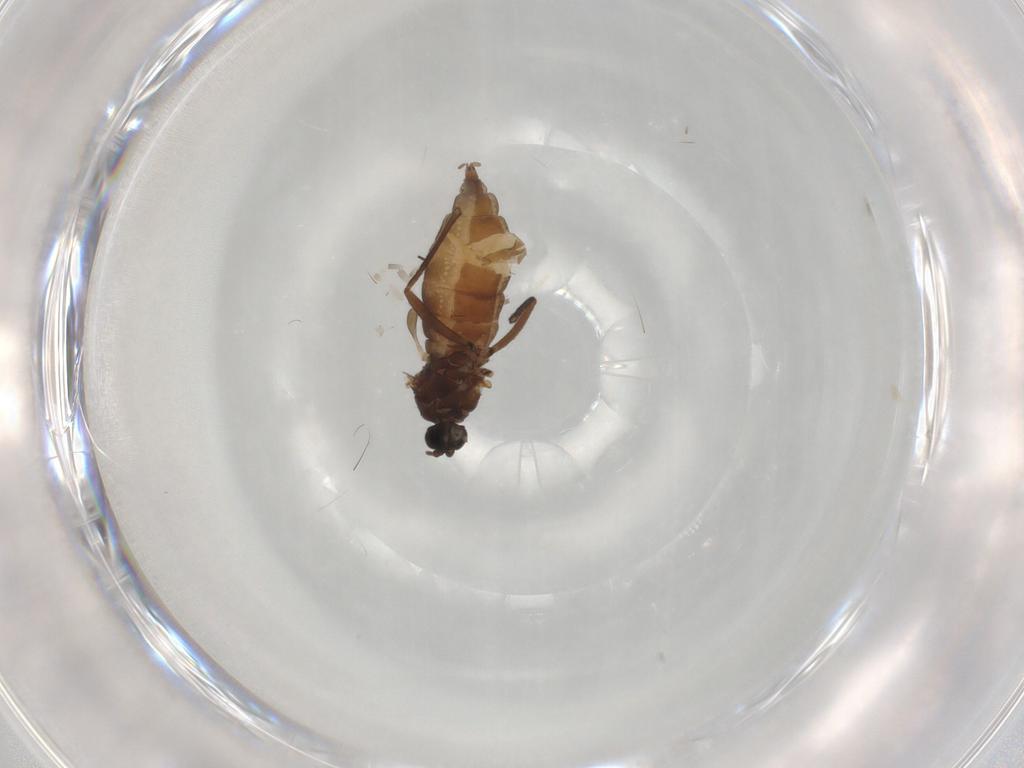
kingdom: Animalia
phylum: Arthropoda
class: Insecta
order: Diptera
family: Sciaridae
